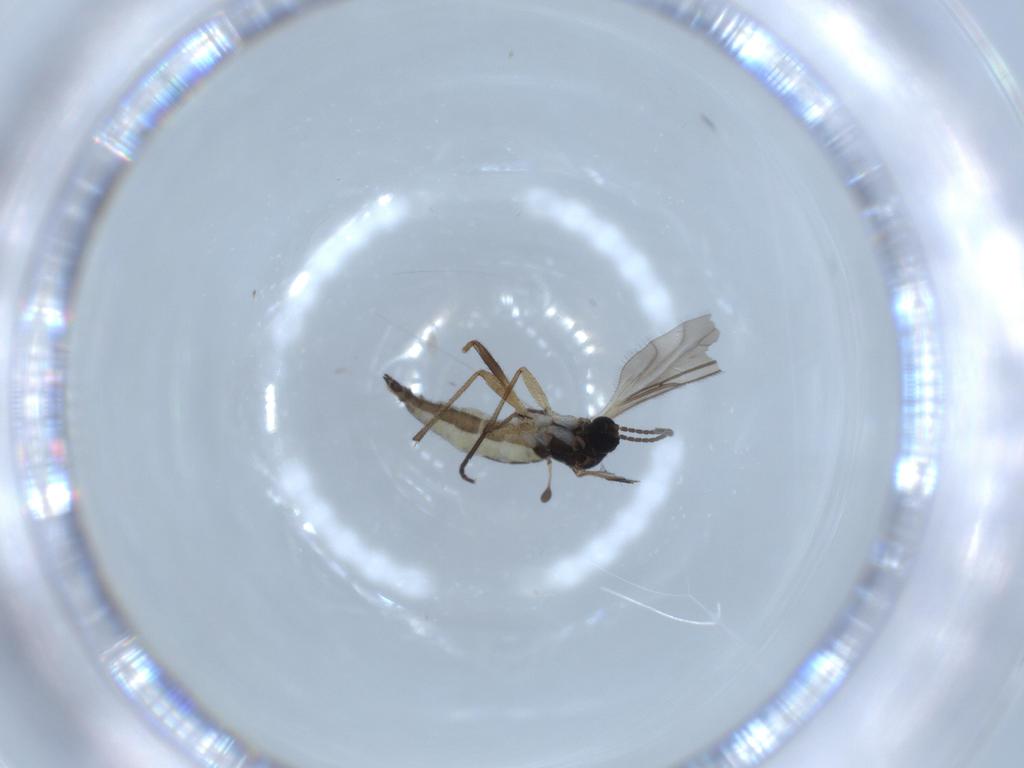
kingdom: Animalia
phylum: Arthropoda
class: Insecta
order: Diptera
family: Sciaridae
